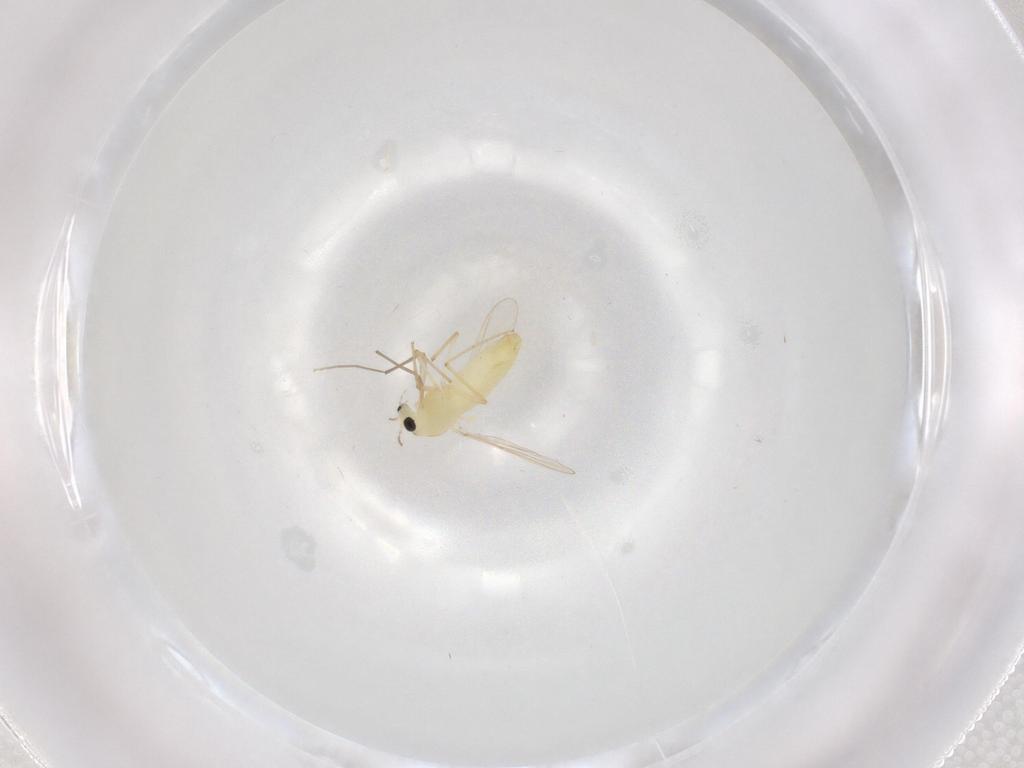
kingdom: Animalia
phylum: Arthropoda
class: Insecta
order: Diptera
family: Chironomidae
